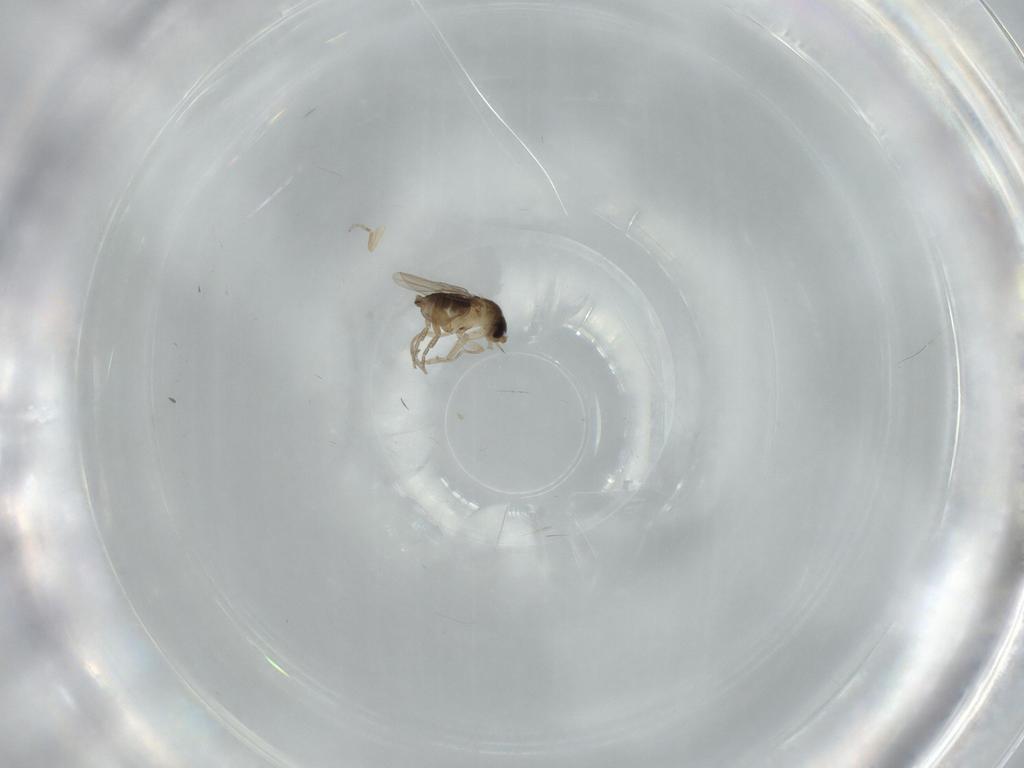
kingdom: Animalia
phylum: Arthropoda
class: Insecta
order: Diptera
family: Phoridae
